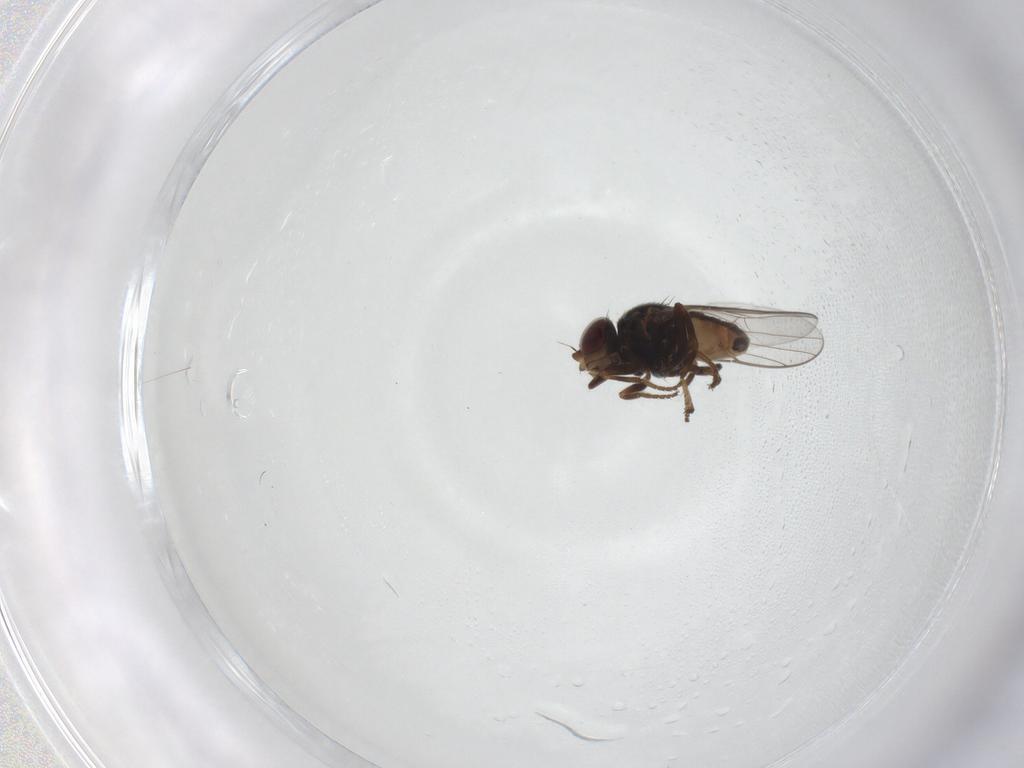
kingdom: Animalia
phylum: Arthropoda
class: Insecta
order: Diptera
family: Chloropidae
